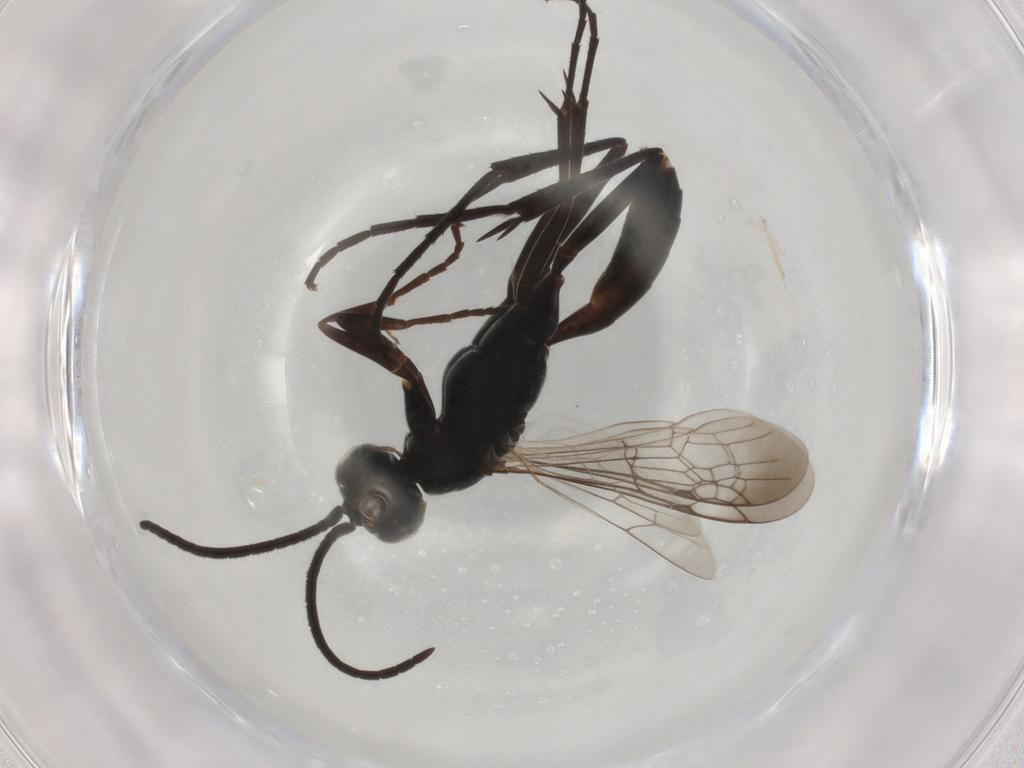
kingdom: Animalia
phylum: Arthropoda
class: Insecta
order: Hymenoptera
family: Pompilidae
